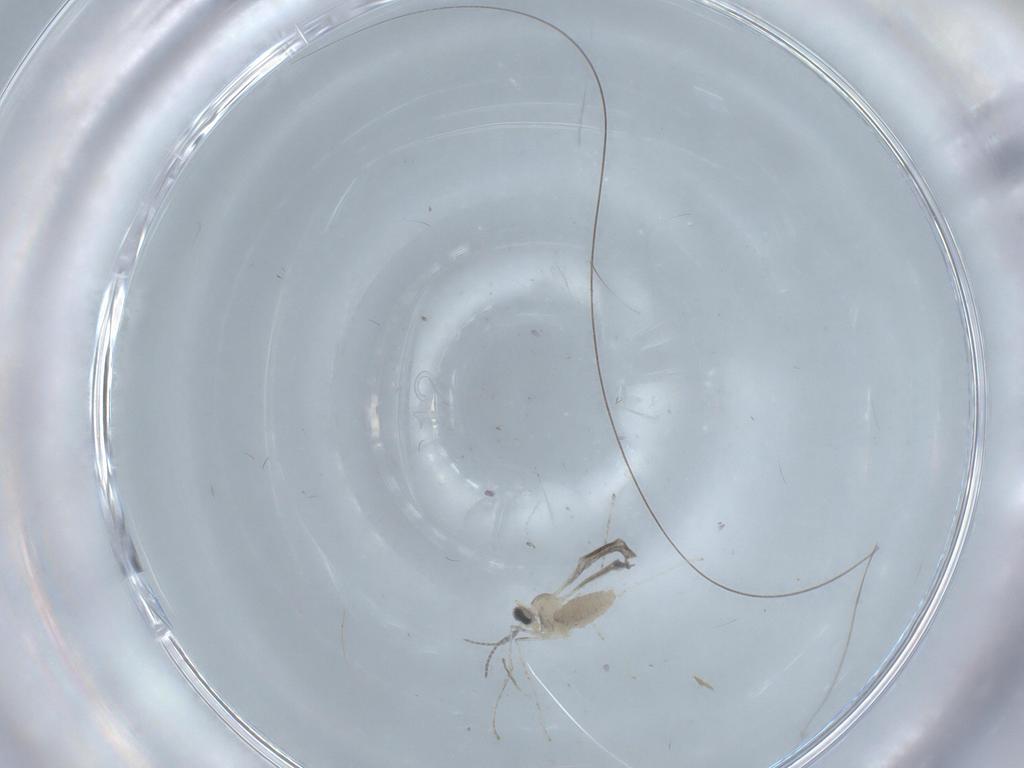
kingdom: Animalia
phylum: Arthropoda
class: Insecta
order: Diptera
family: Cecidomyiidae
